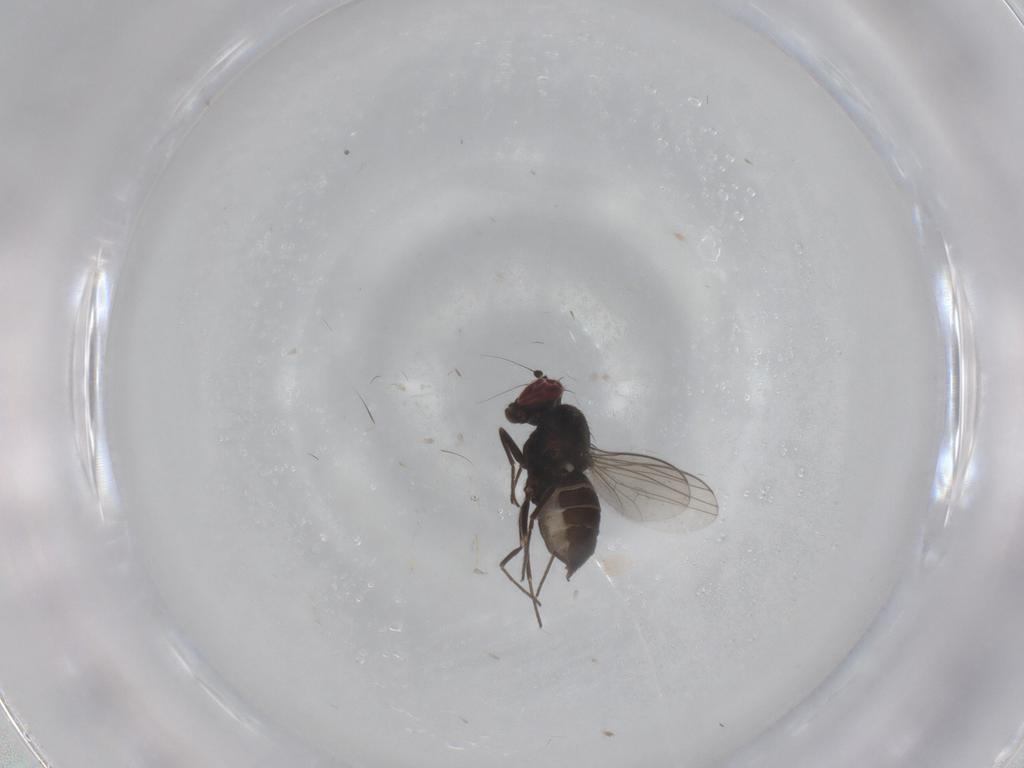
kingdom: Animalia
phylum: Arthropoda
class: Insecta
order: Diptera
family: Dolichopodidae
